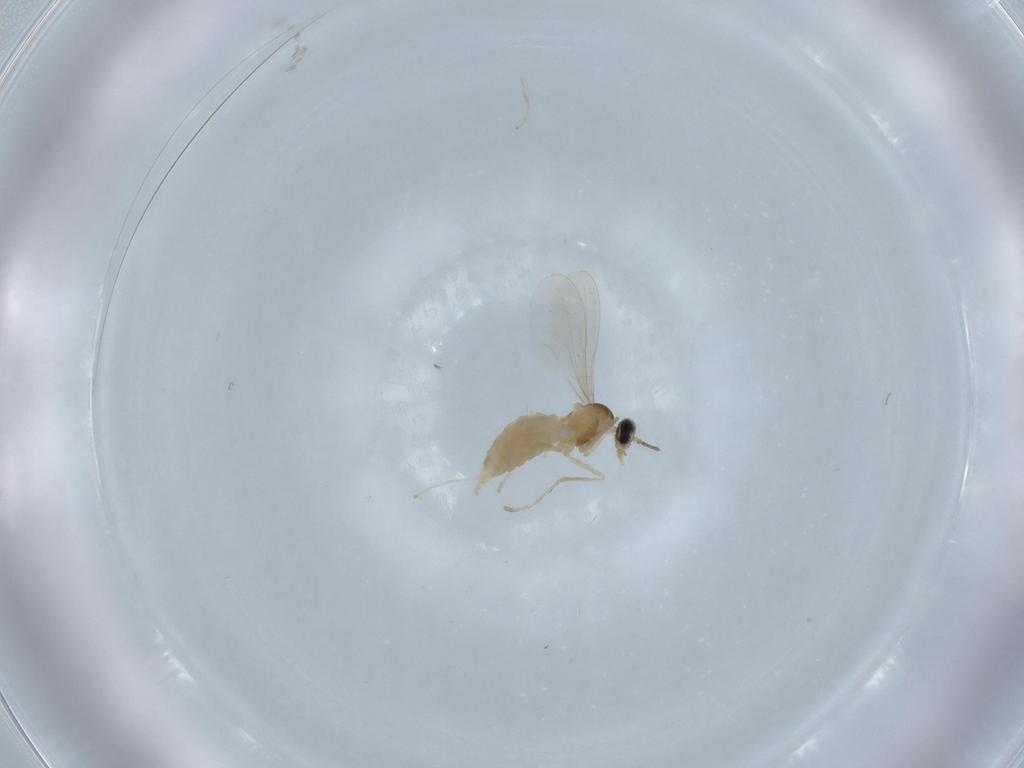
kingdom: Animalia
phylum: Arthropoda
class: Insecta
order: Diptera
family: Cecidomyiidae
